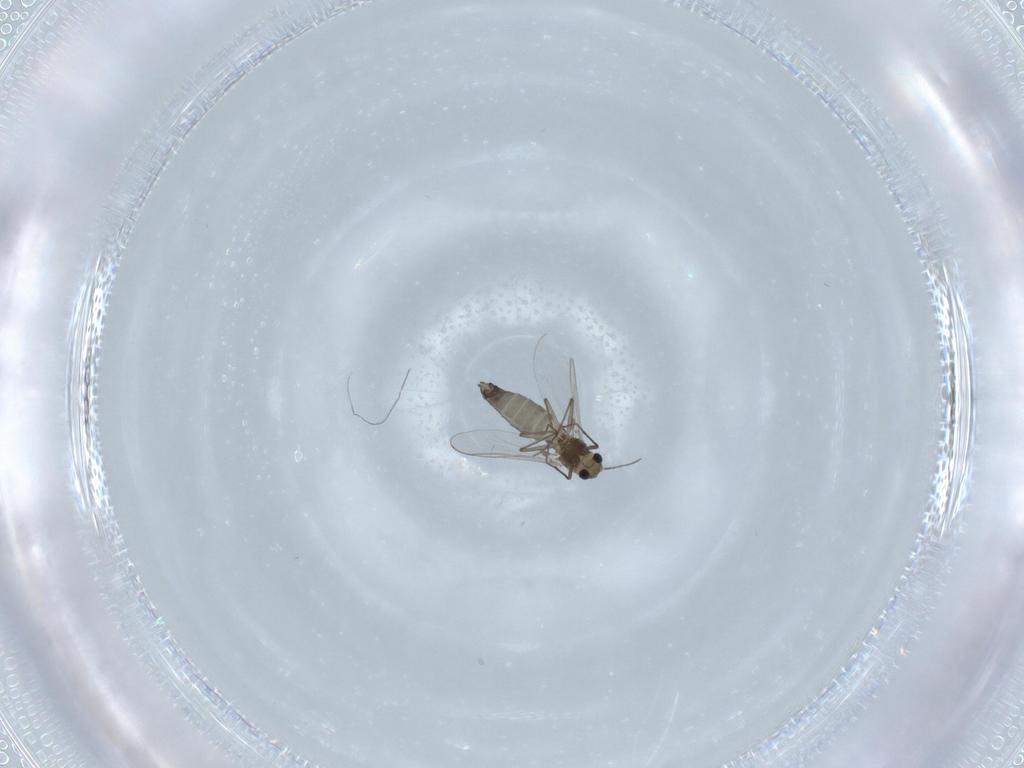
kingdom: Animalia
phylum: Arthropoda
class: Insecta
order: Diptera
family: Chironomidae
